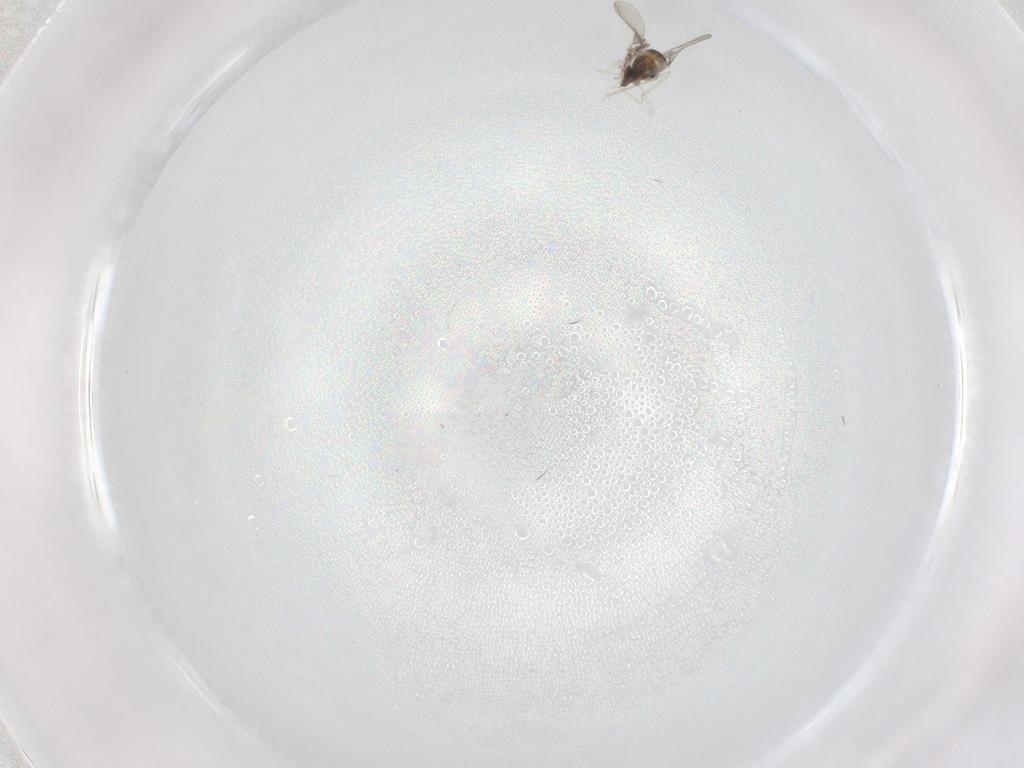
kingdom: Animalia
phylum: Arthropoda
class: Insecta
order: Diptera
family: Cecidomyiidae
